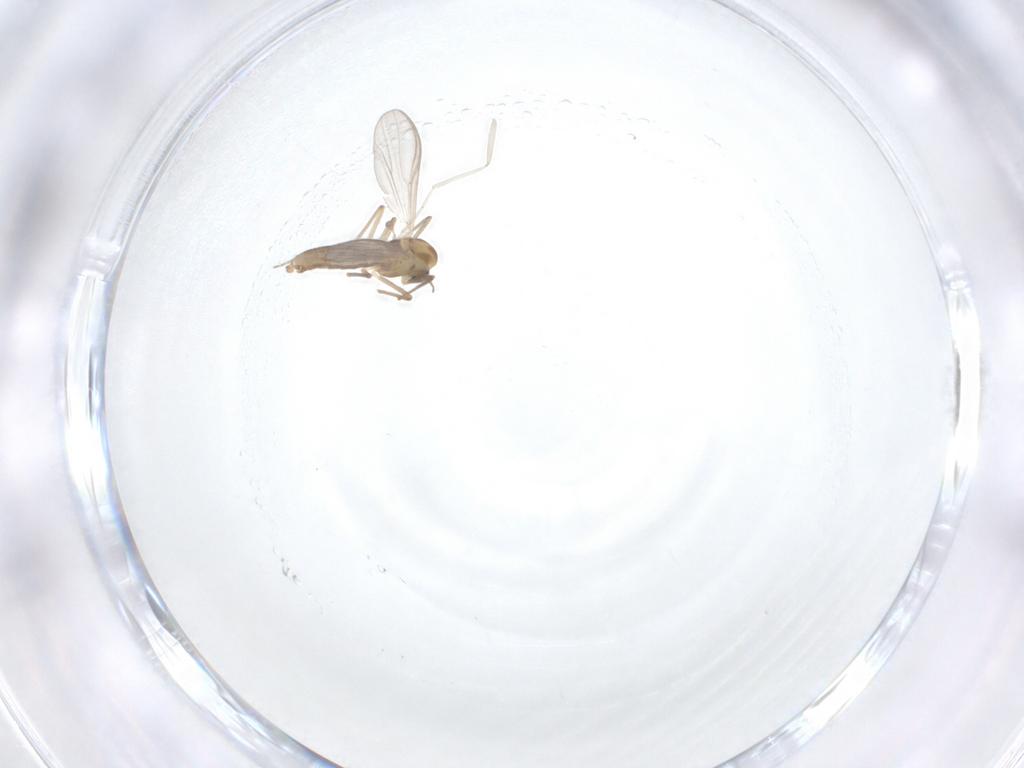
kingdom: Animalia
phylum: Arthropoda
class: Insecta
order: Diptera
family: Chironomidae
